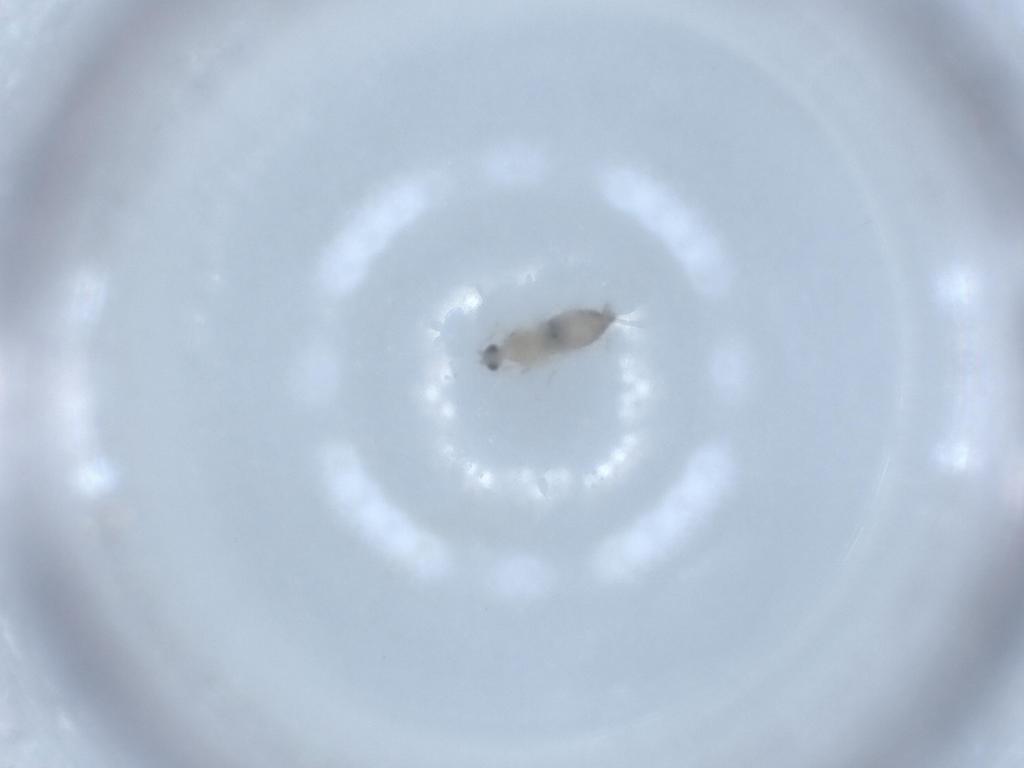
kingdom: Animalia
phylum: Arthropoda
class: Insecta
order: Diptera
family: Cecidomyiidae
